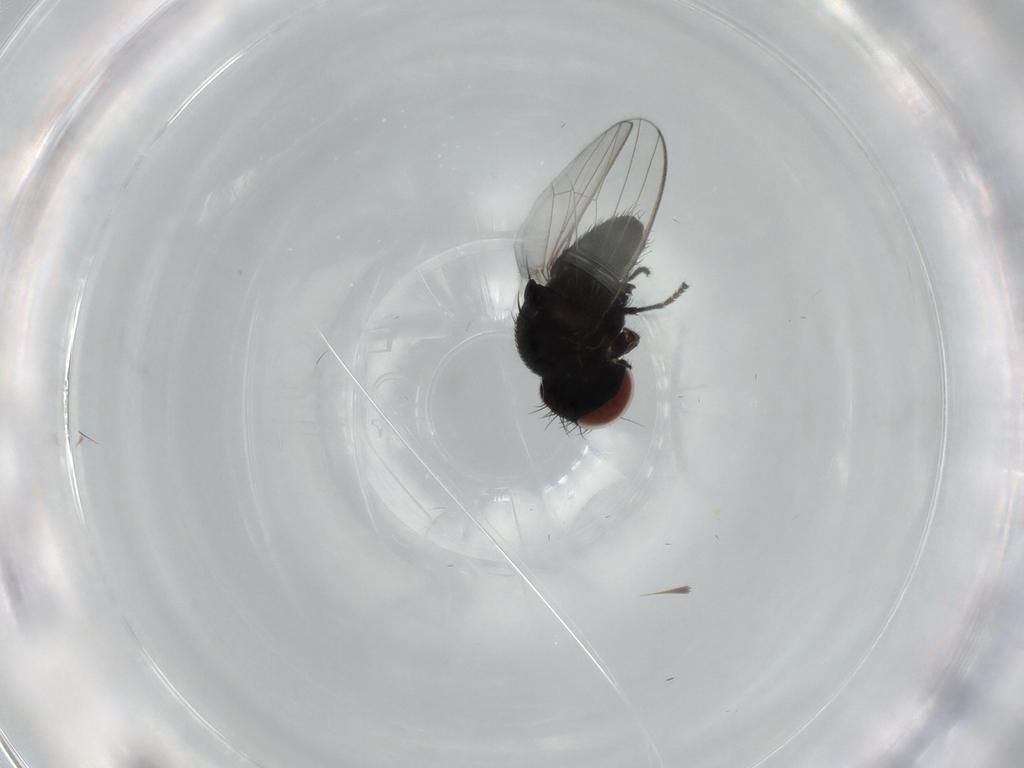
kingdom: Animalia
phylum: Arthropoda
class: Insecta
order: Diptera
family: Milichiidae
